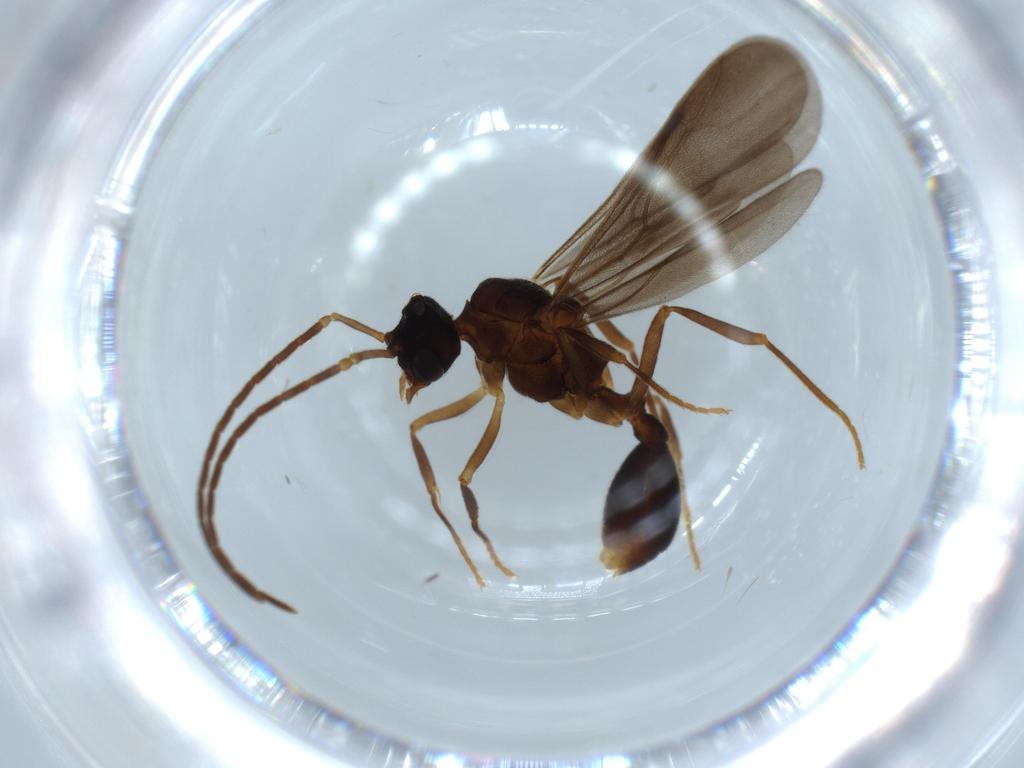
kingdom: Animalia
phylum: Arthropoda
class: Insecta
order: Hymenoptera
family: Formicidae
